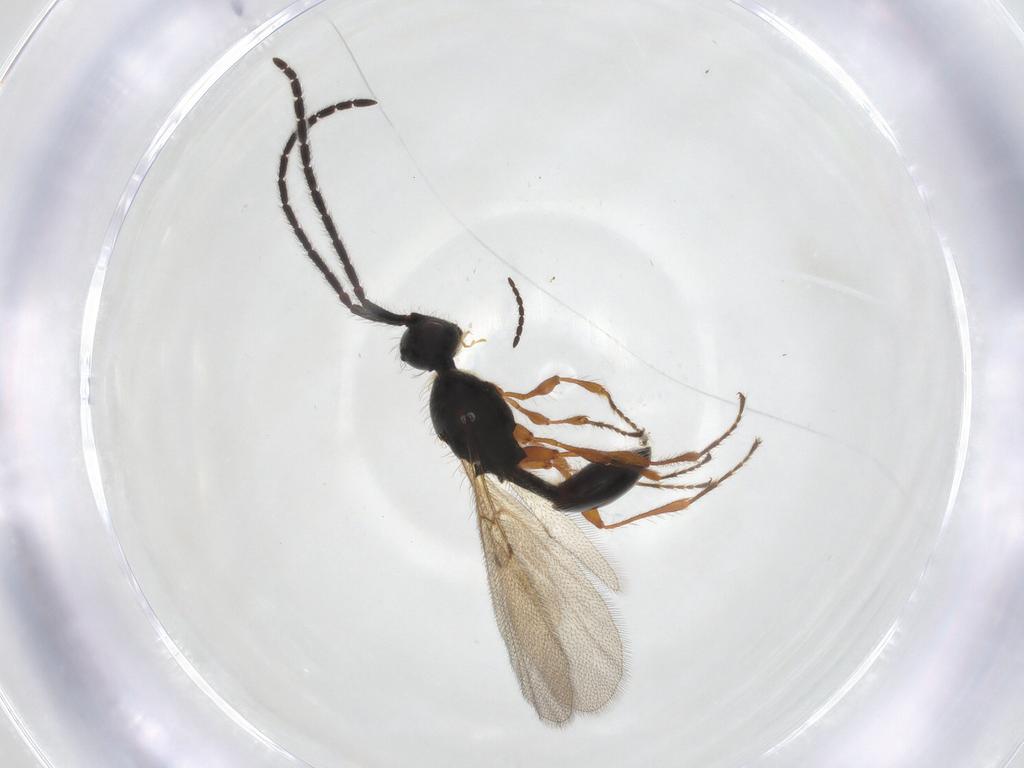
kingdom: Animalia
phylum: Arthropoda
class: Insecta
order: Hymenoptera
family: Diapriidae
